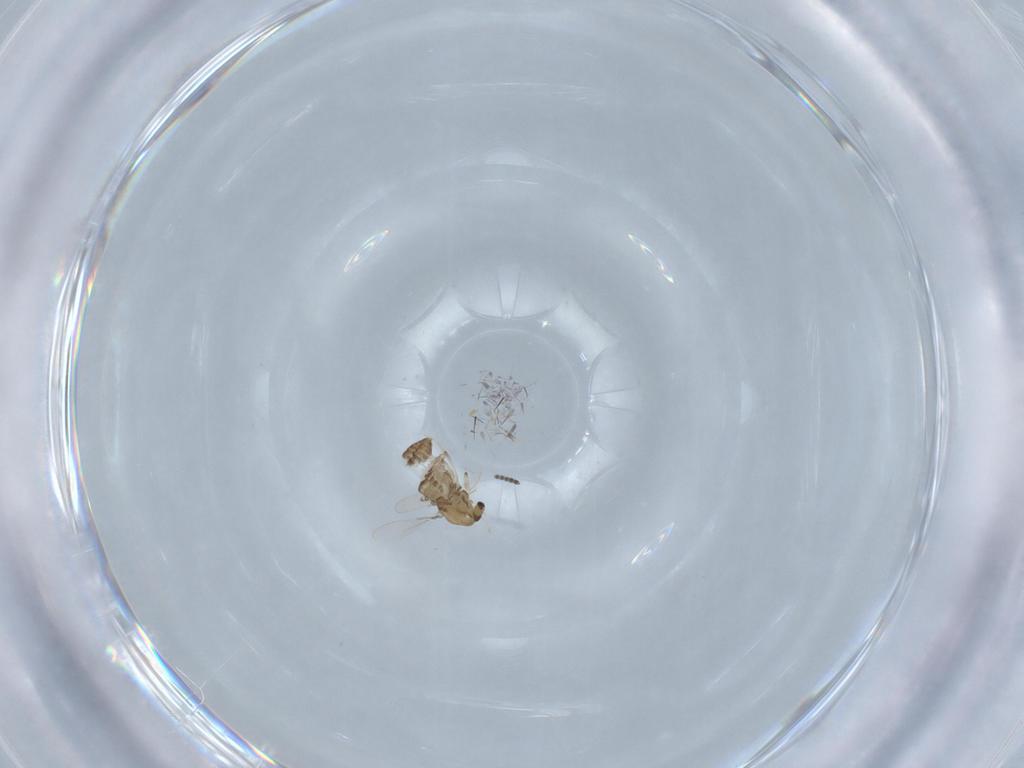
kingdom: Animalia
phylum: Arthropoda
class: Insecta
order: Diptera
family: Chironomidae
